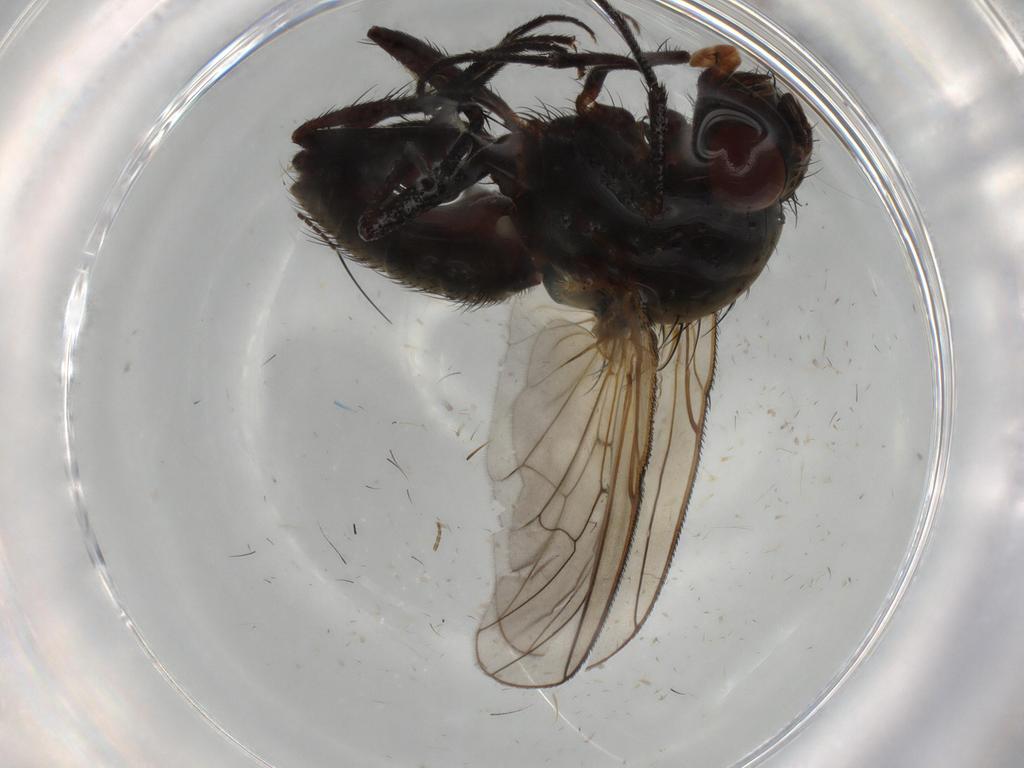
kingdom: Animalia
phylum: Arthropoda
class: Insecta
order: Diptera
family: Anthomyiidae
